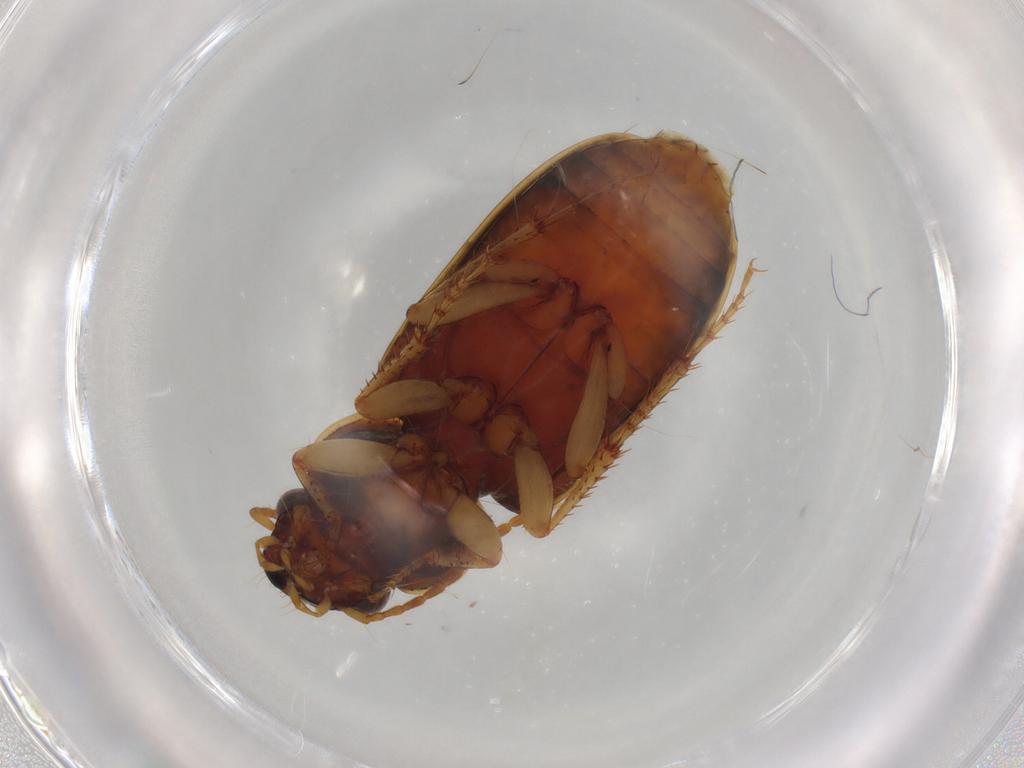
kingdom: Animalia
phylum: Arthropoda
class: Insecta
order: Coleoptera
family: Carabidae
